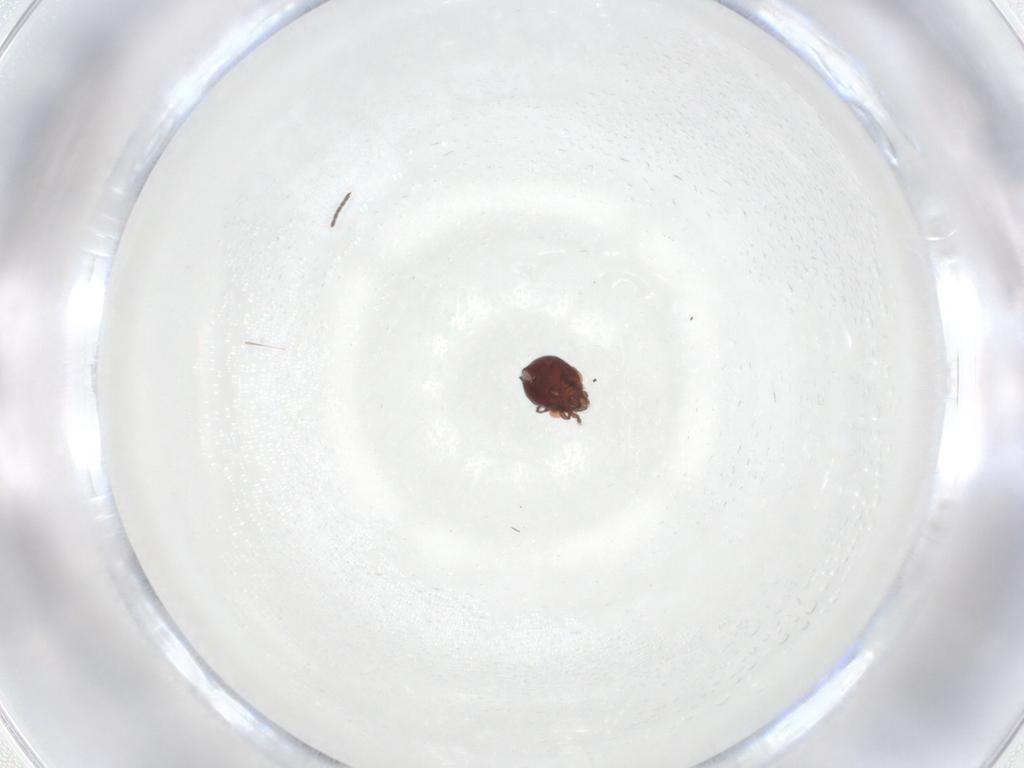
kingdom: Animalia
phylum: Arthropoda
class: Arachnida
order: Sarcoptiformes
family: Humerobatidae
